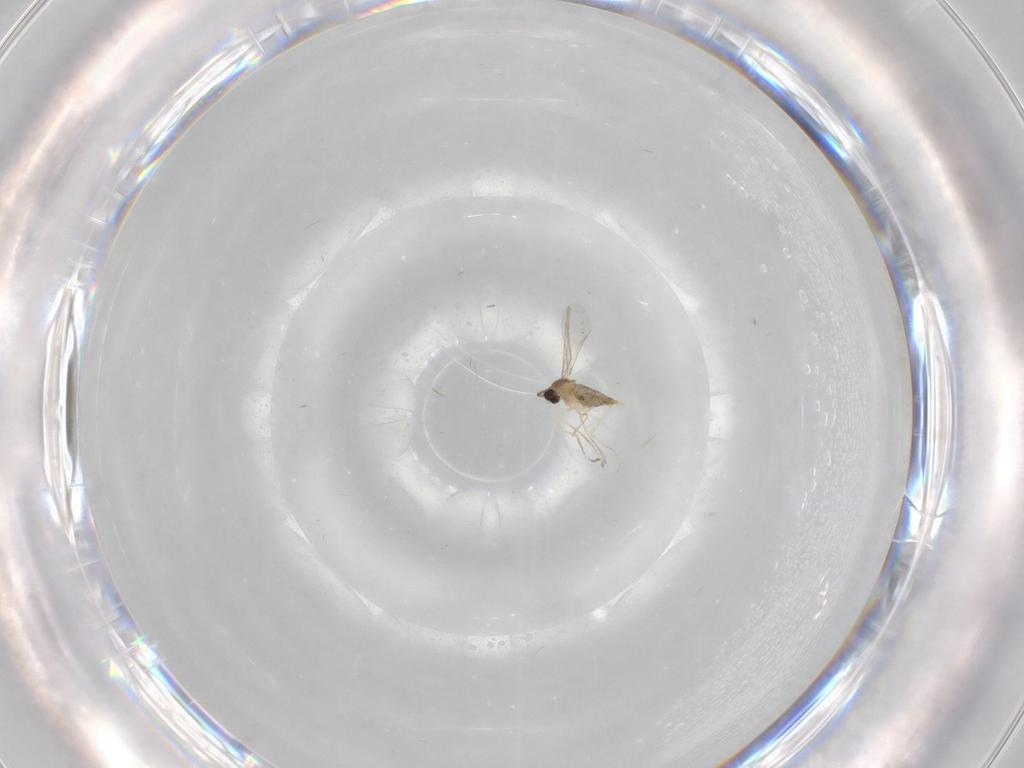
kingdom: Animalia
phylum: Arthropoda
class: Insecta
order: Diptera
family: Cecidomyiidae
